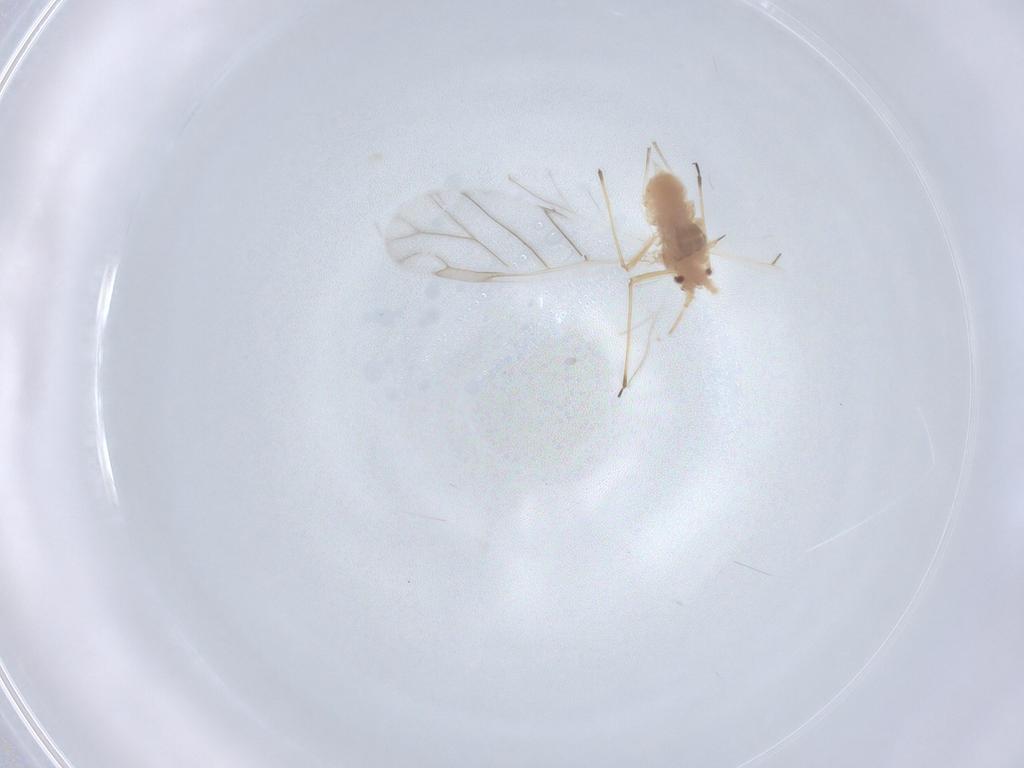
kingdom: Animalia
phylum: Arthropoda
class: Insecta
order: Hemiptera
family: Aphididae
